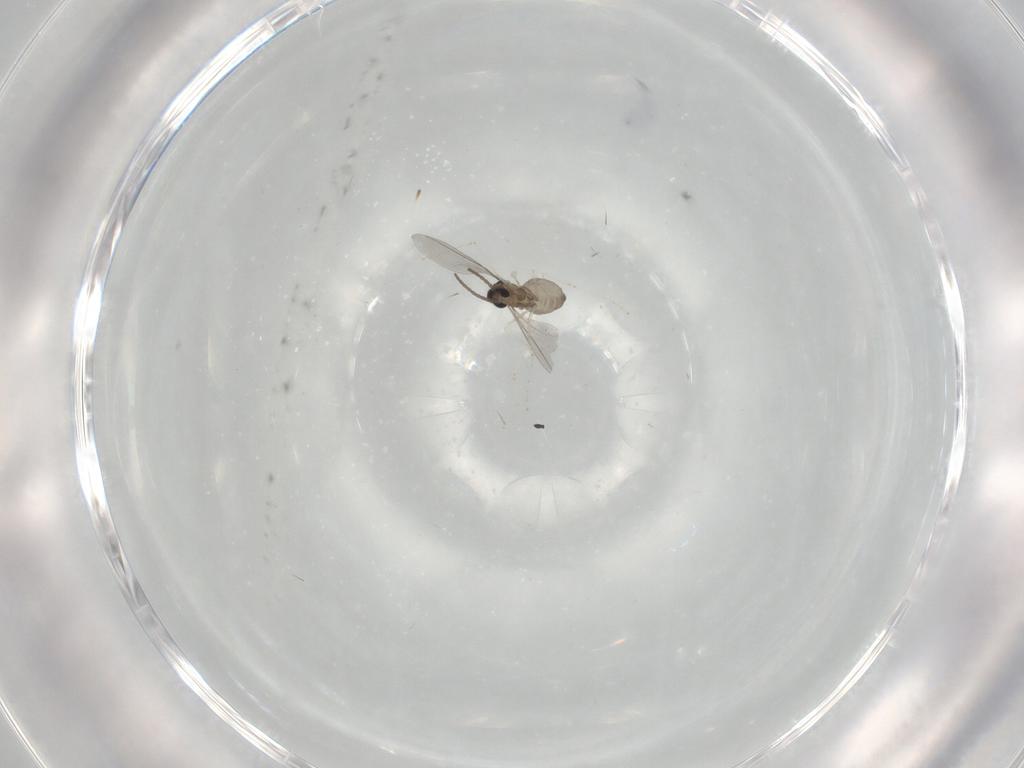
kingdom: Animalia
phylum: Arthropoda
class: Insecta
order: Diptera
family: Cecidomyiidae
